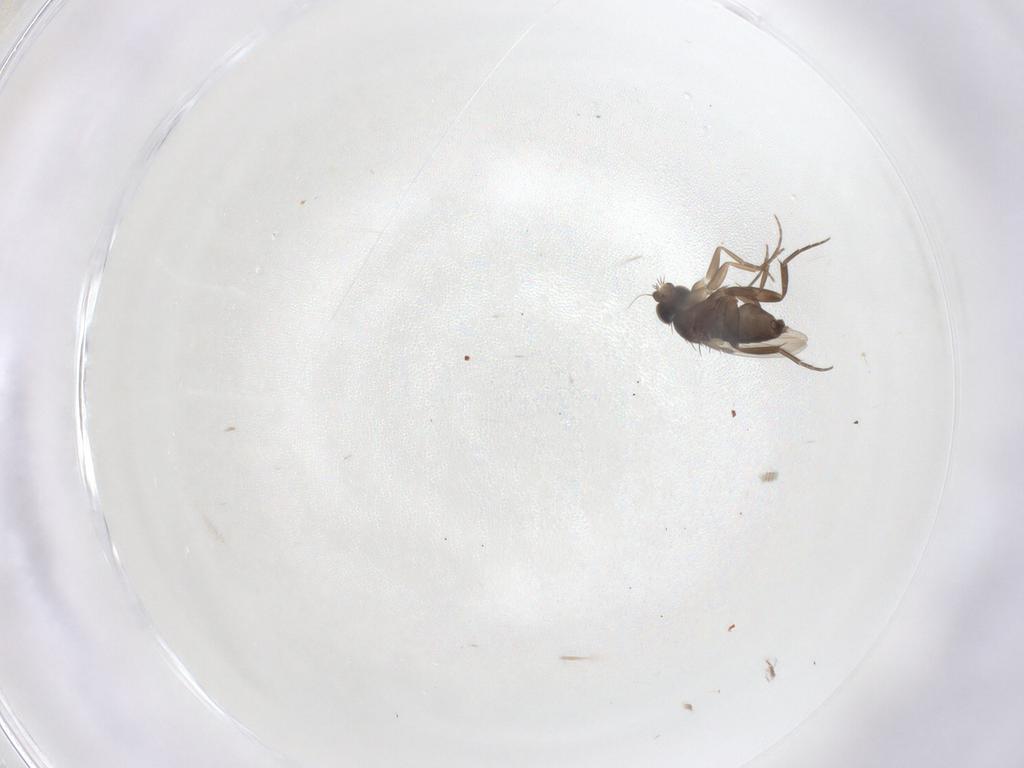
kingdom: Animalia
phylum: Arthropoda
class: Insecta
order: Diptera
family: Phoridae
